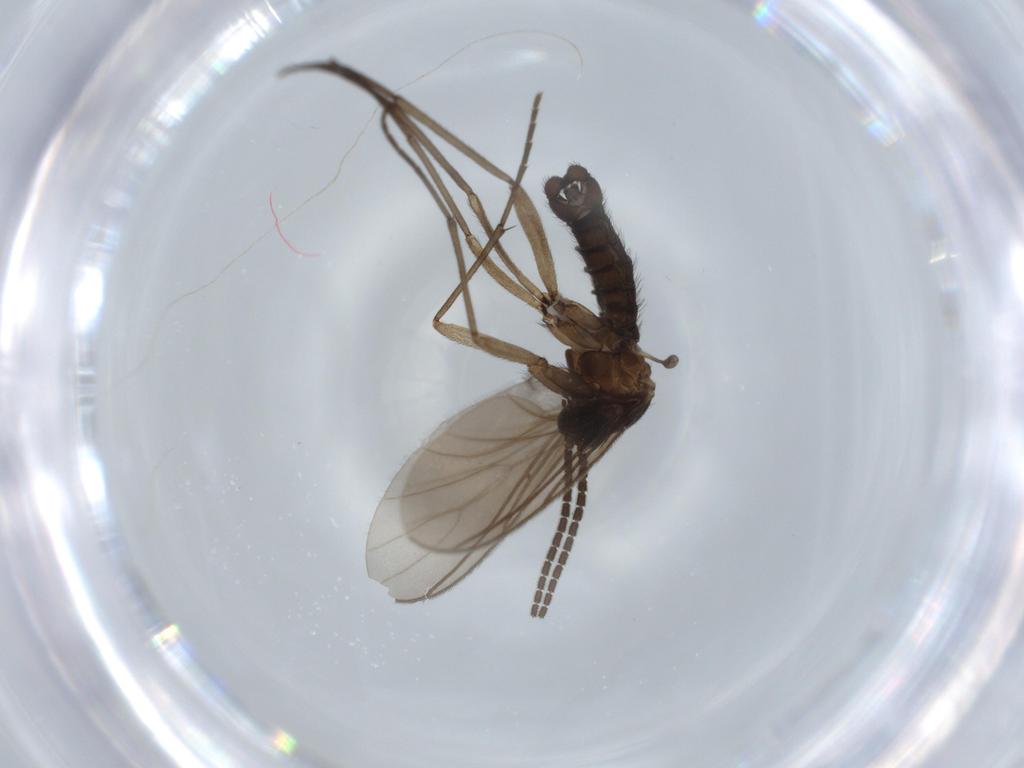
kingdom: Animalia
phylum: Arthropoda
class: Insecta
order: Diptera
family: Sciaridae
